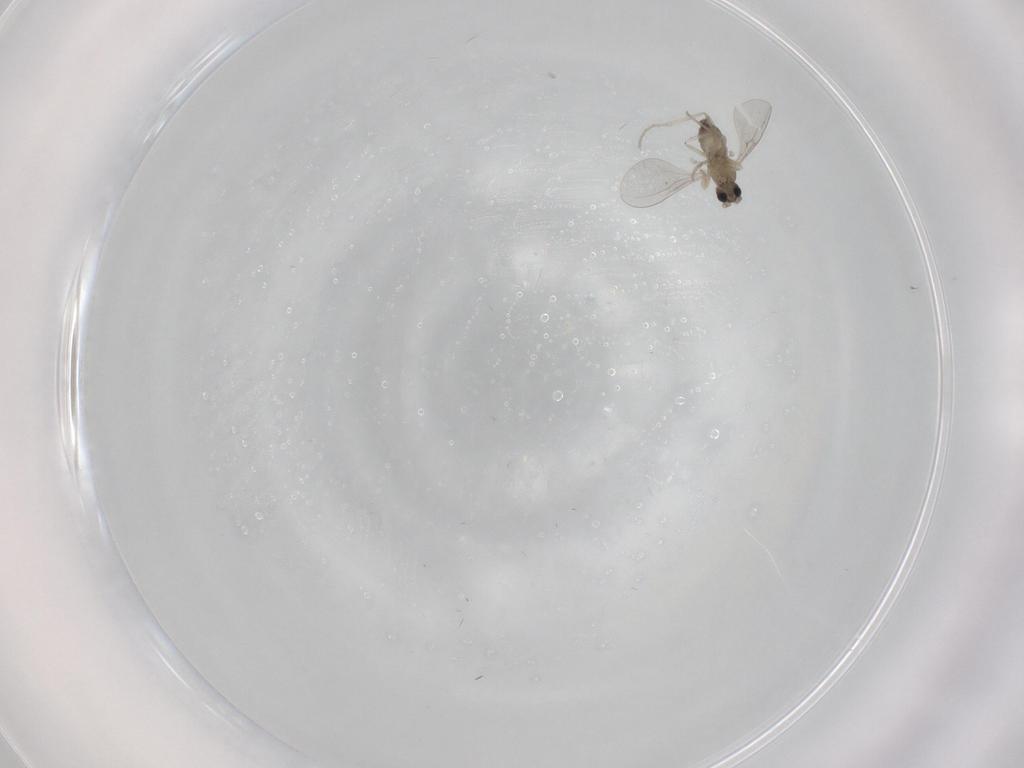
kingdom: Animalia
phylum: Arthropoda
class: Insecta
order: Diptera
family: Cecidomyiidae
